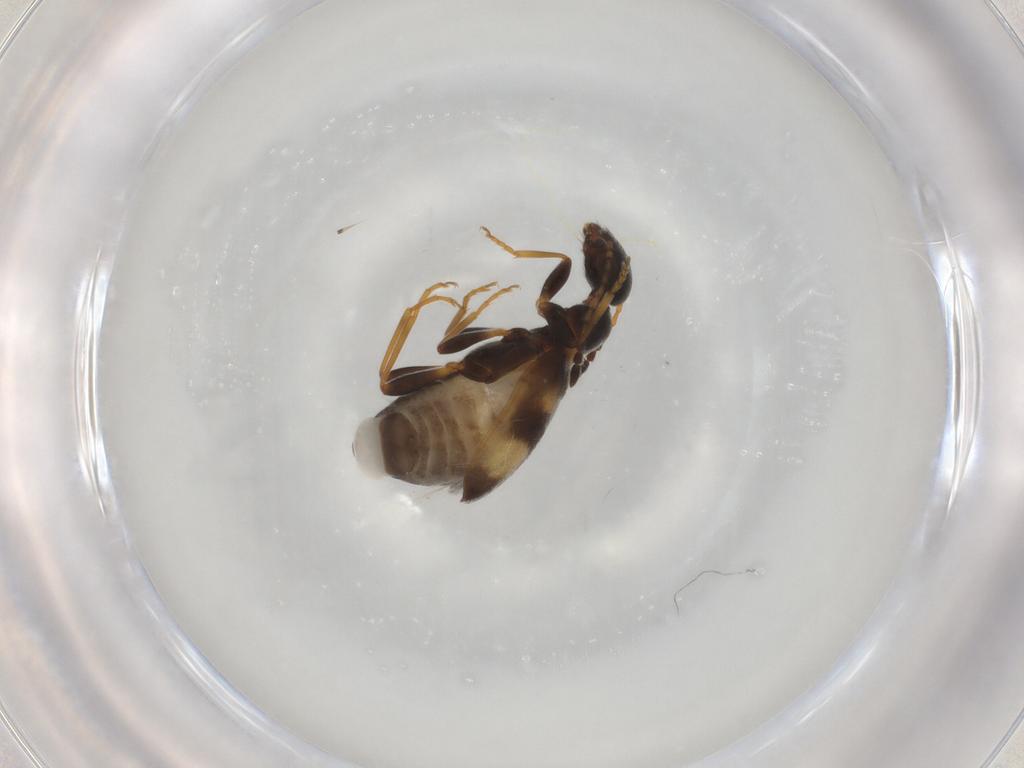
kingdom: Animalia
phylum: Arthropoda
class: Insecta
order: Coleoptera
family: Anthicidae
